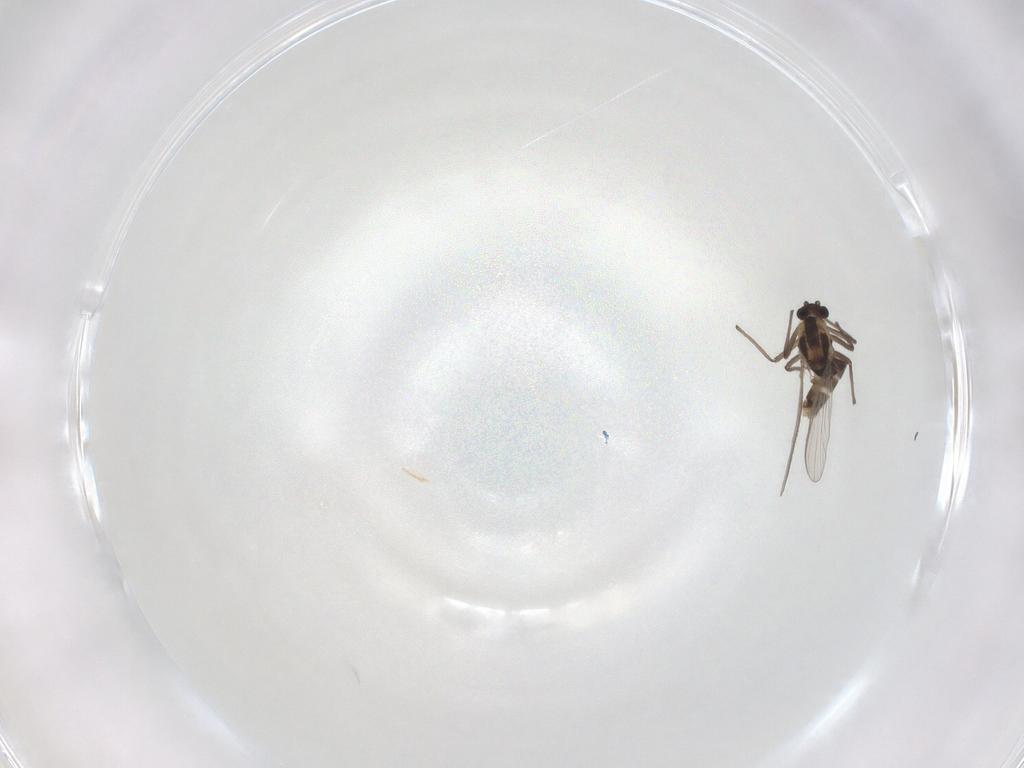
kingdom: Animalia
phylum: Arthropoda
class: Insecta
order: Diptera
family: Chironomidae
